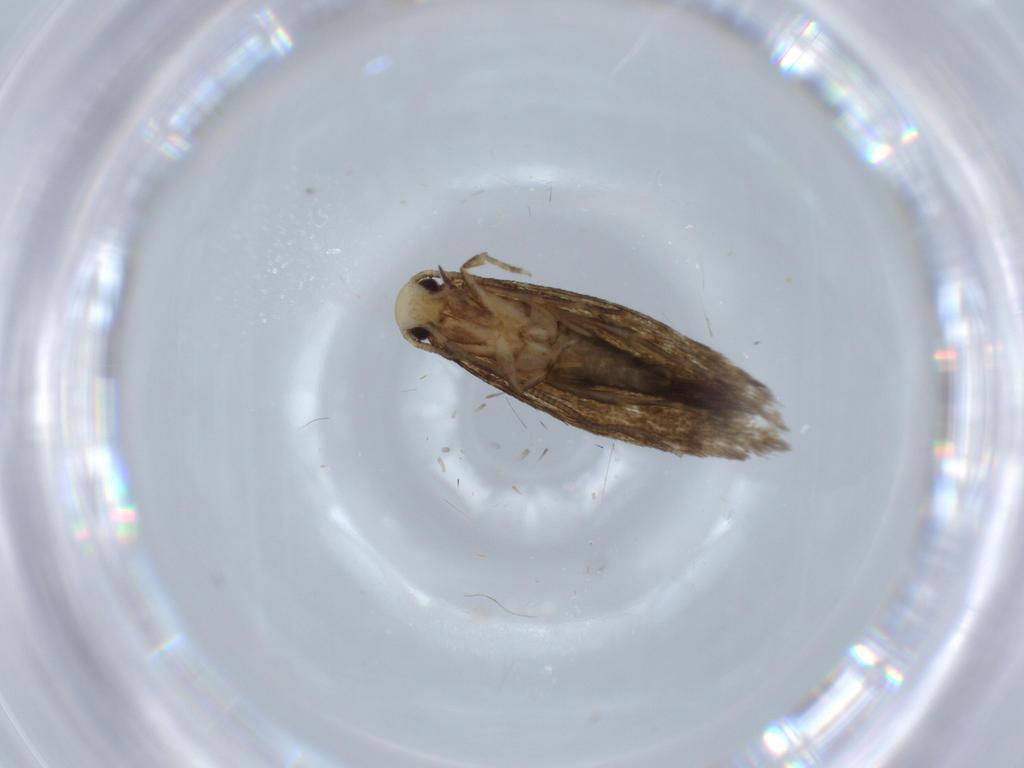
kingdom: Animalia
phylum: Arthropoda
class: Insecta
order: Lepidoptera
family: Tineidae
